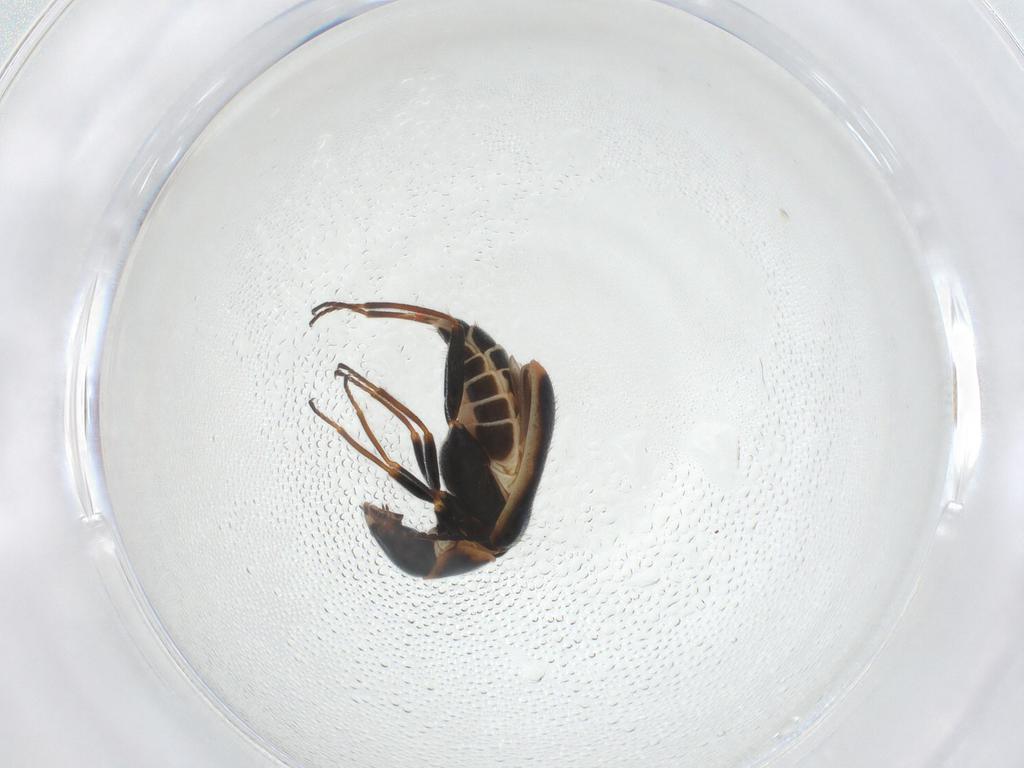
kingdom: Animalia
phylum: Arthropoda
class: Insecta
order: Coleoptera
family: Melyridae
